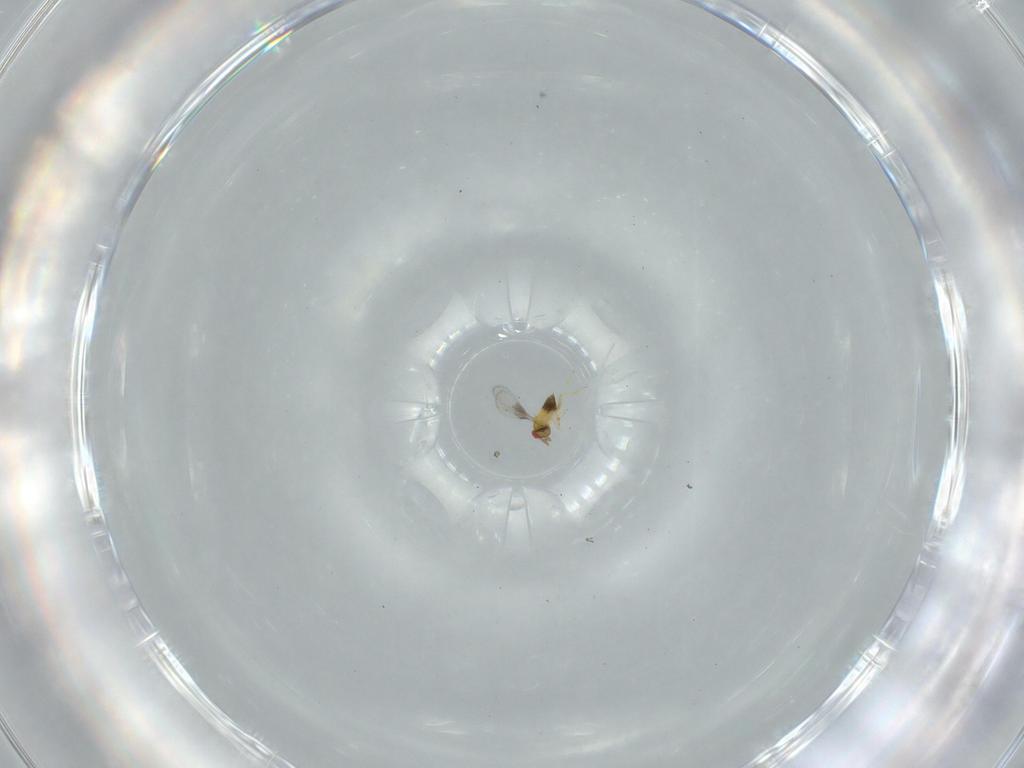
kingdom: Animalia
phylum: Arthropoda
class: Insecta
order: Hymenoptera
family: Trichogrammatidae
